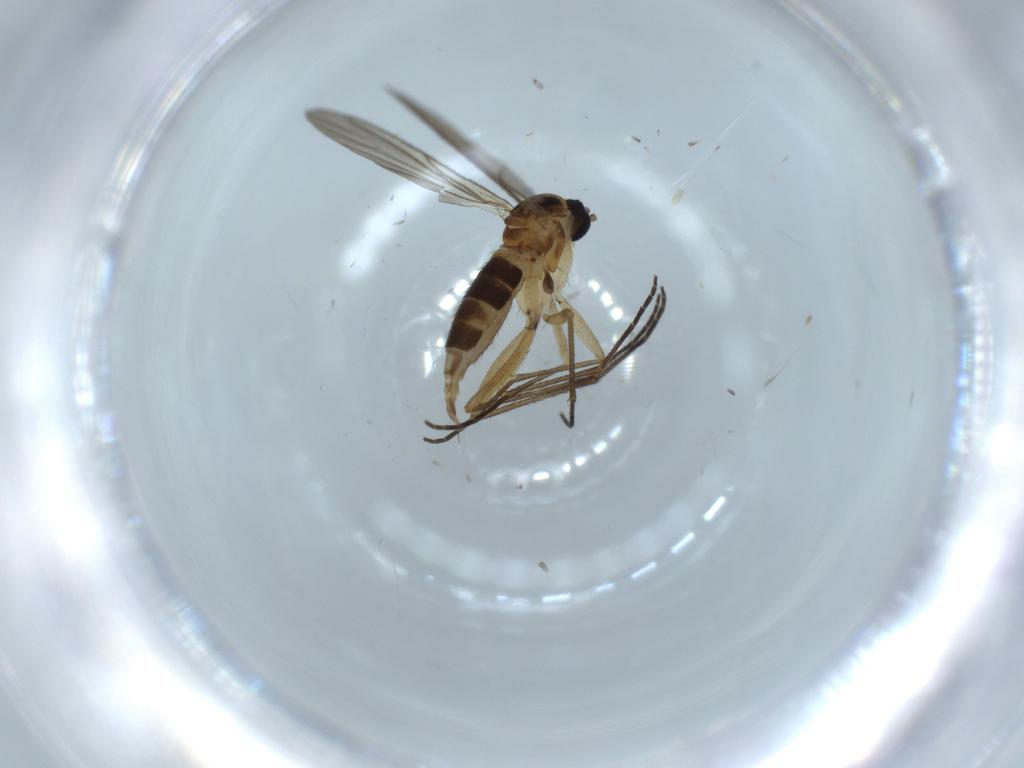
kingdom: Animalia
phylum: Arthropoda
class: Insecta
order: Diptera
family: Sciaridae
